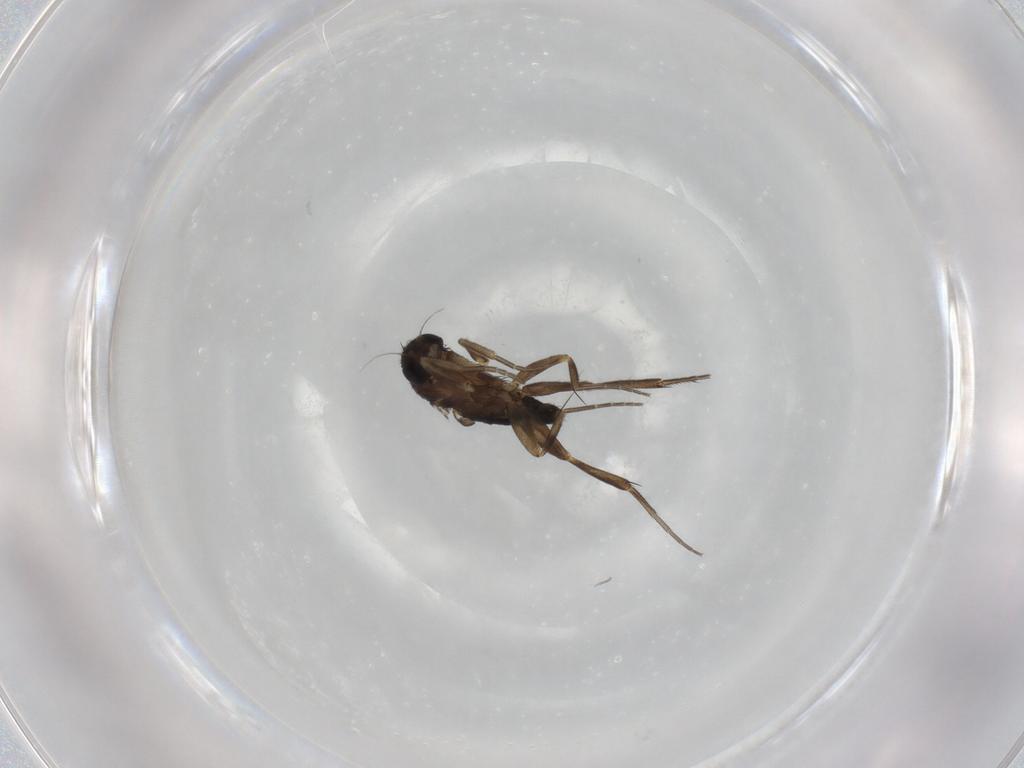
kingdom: Animalia
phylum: Arthropoda
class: Insecta
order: Diptera
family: Phoridae
